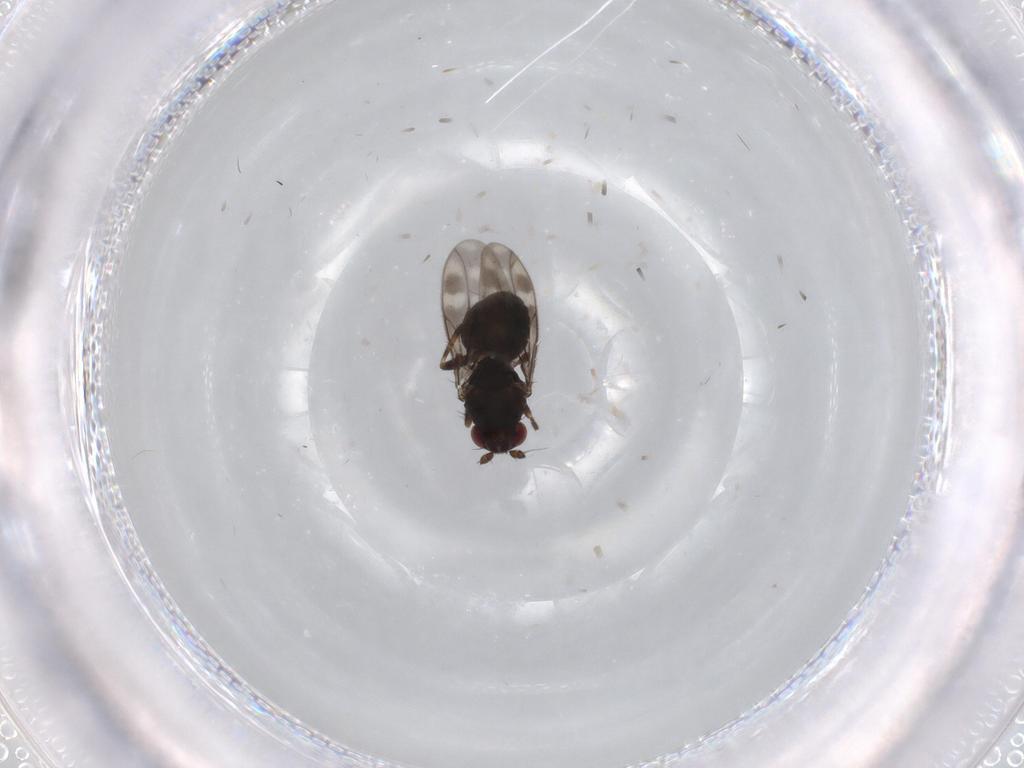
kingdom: Animalia
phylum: Arthropoda
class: Insecta
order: Diptera
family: Sphaeroceridae
